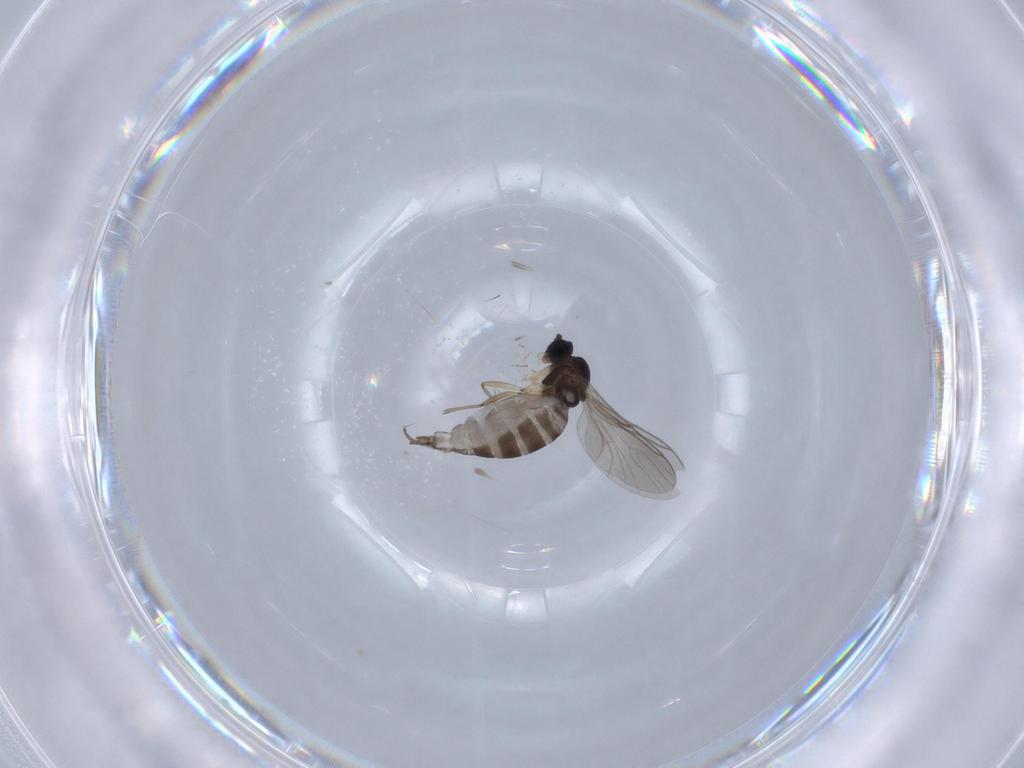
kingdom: Animalia
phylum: Arthropoda
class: Insecta
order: Diptera
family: Sciaridae
